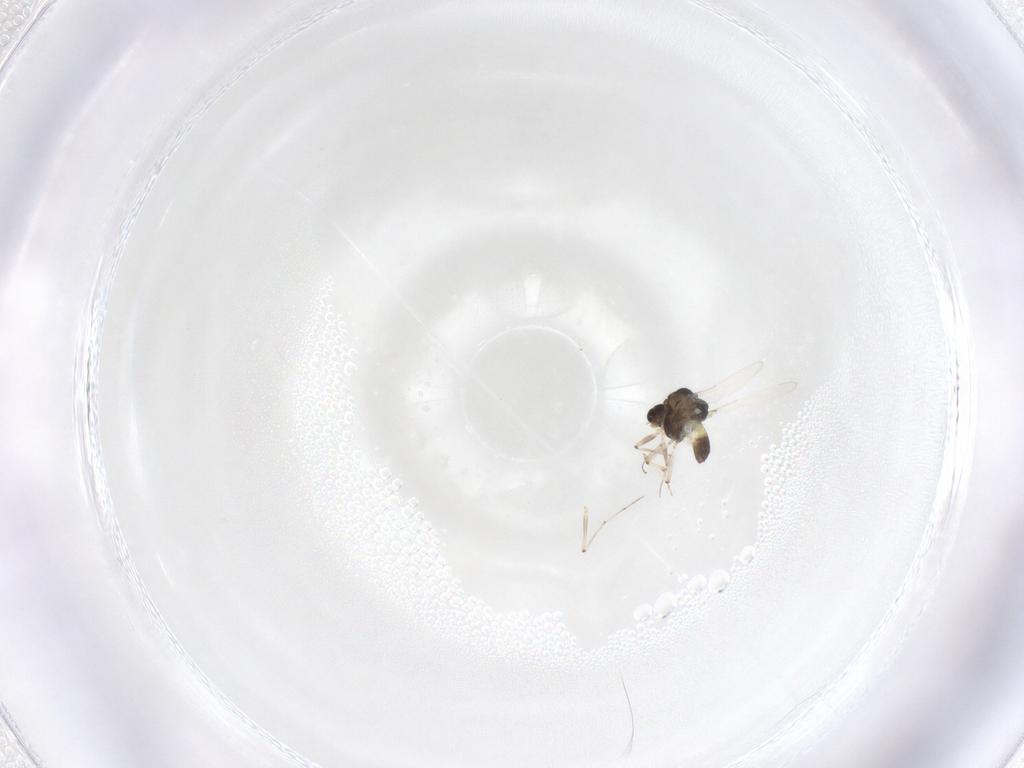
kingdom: Animalia
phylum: Arthropoda
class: Insecta
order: Diptera
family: Chironomidae
